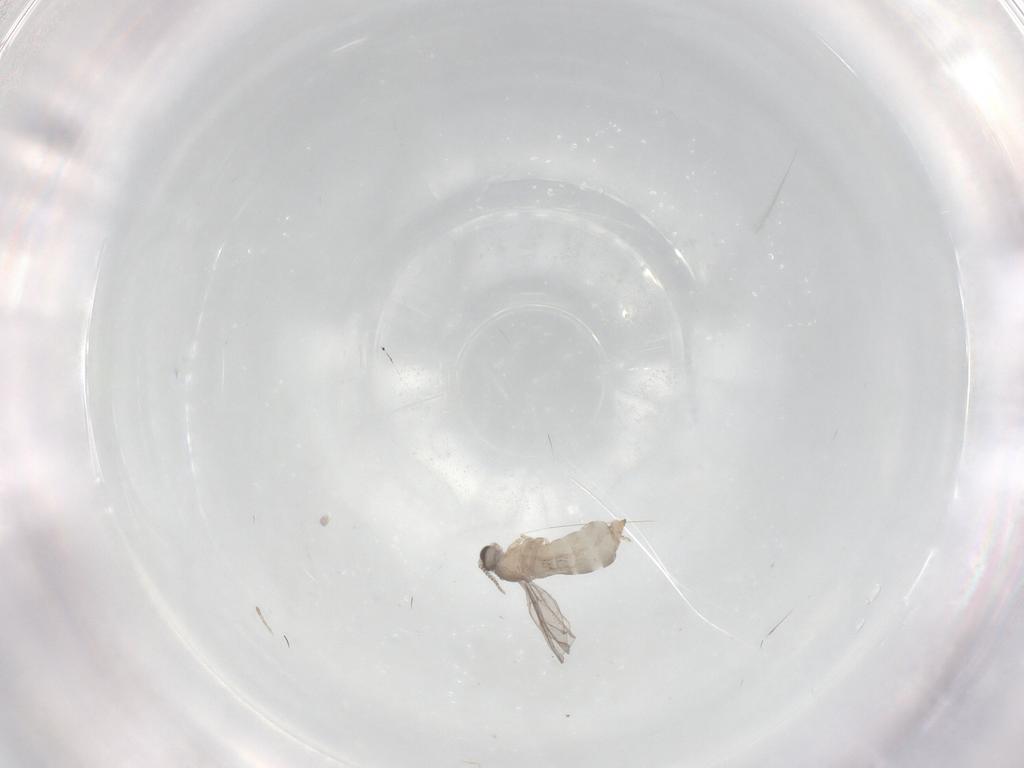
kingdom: Animalia
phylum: Arthropoda
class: Insecta
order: Diptera
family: Cecidomyiidae
